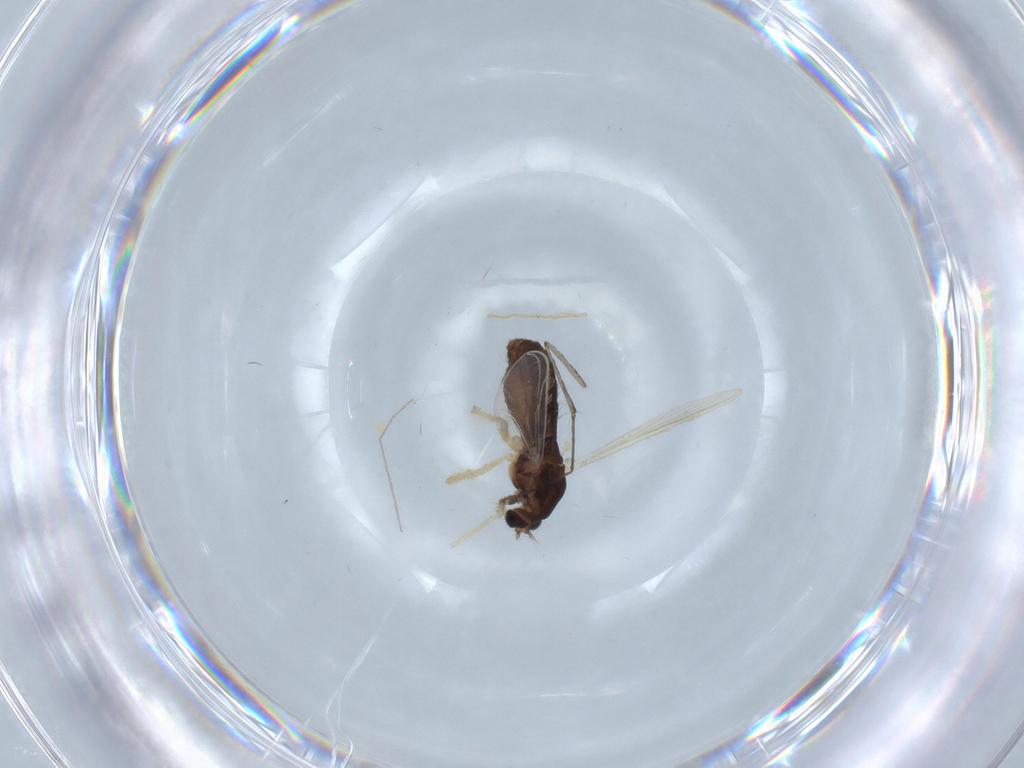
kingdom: Animalia
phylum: Arthropoda
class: Insecta
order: Diptera
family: Chironomidae
